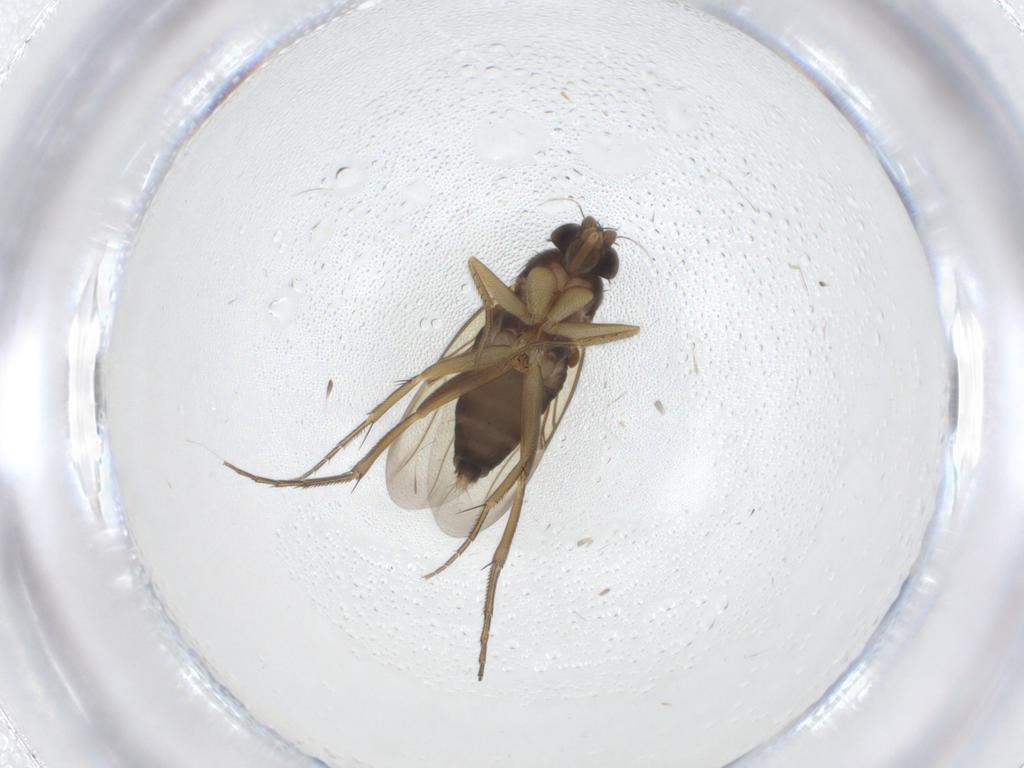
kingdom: Animalia
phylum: Arthropoda
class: Insecta
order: Diptera
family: Phoridae
